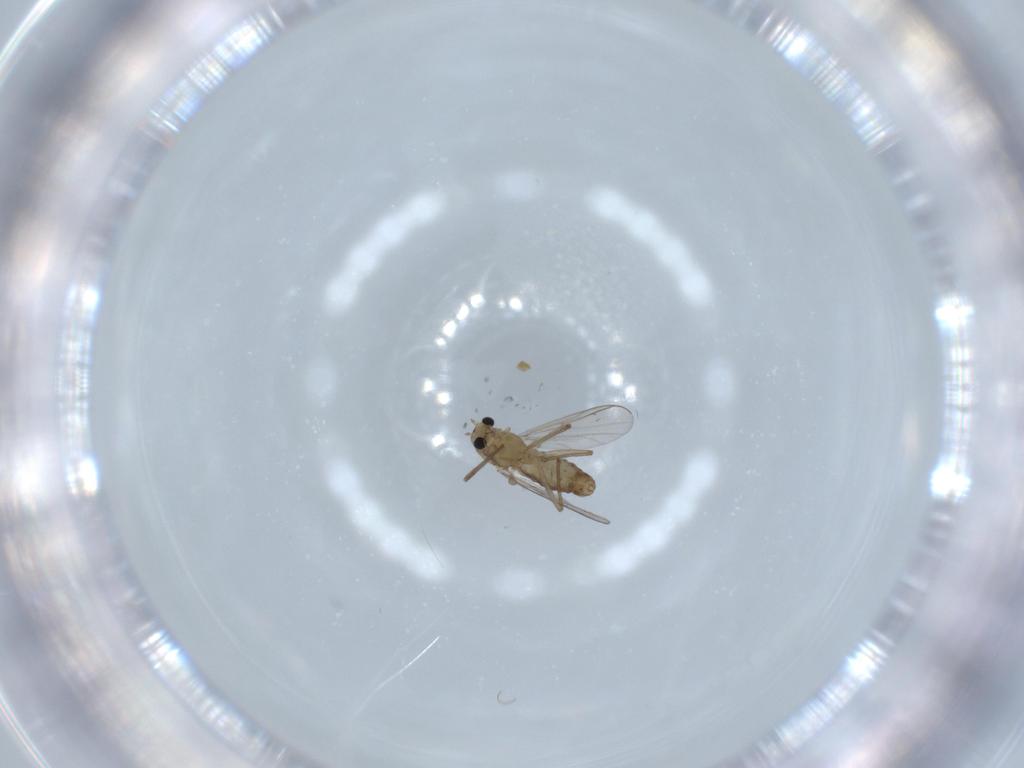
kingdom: Animalia
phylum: Arthropoda
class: Insecta
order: Diptera
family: Chironomidae
